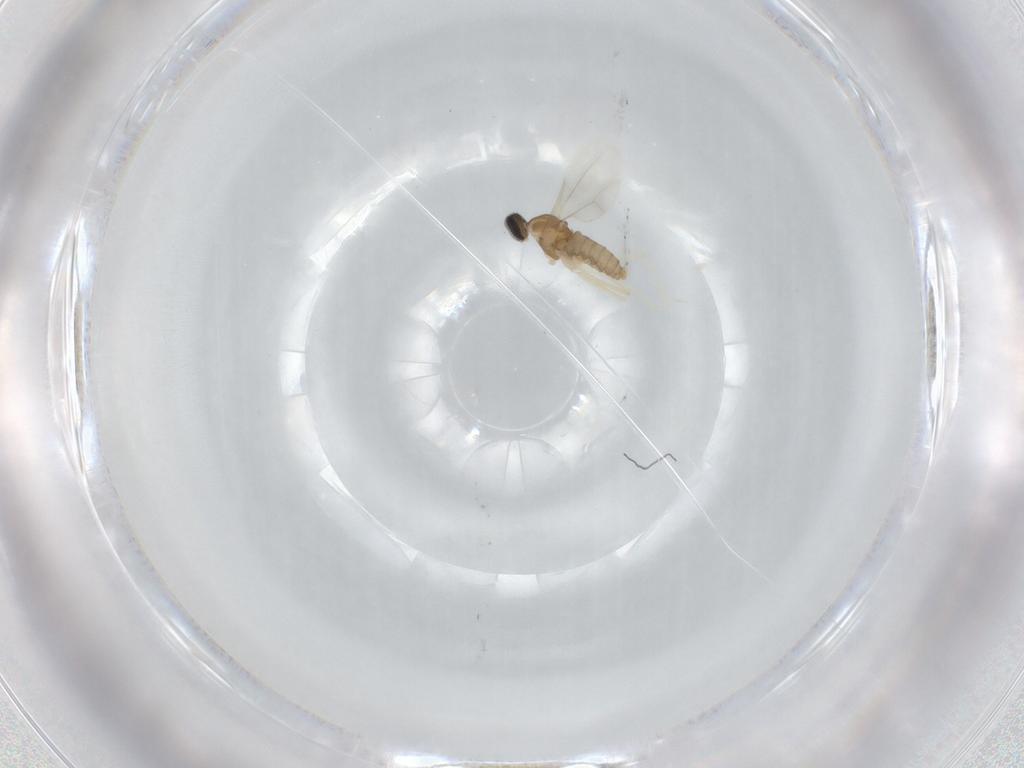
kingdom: Animalia
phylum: Arthropoda
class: Insecta
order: Diptera
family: Cecidomyiidae
